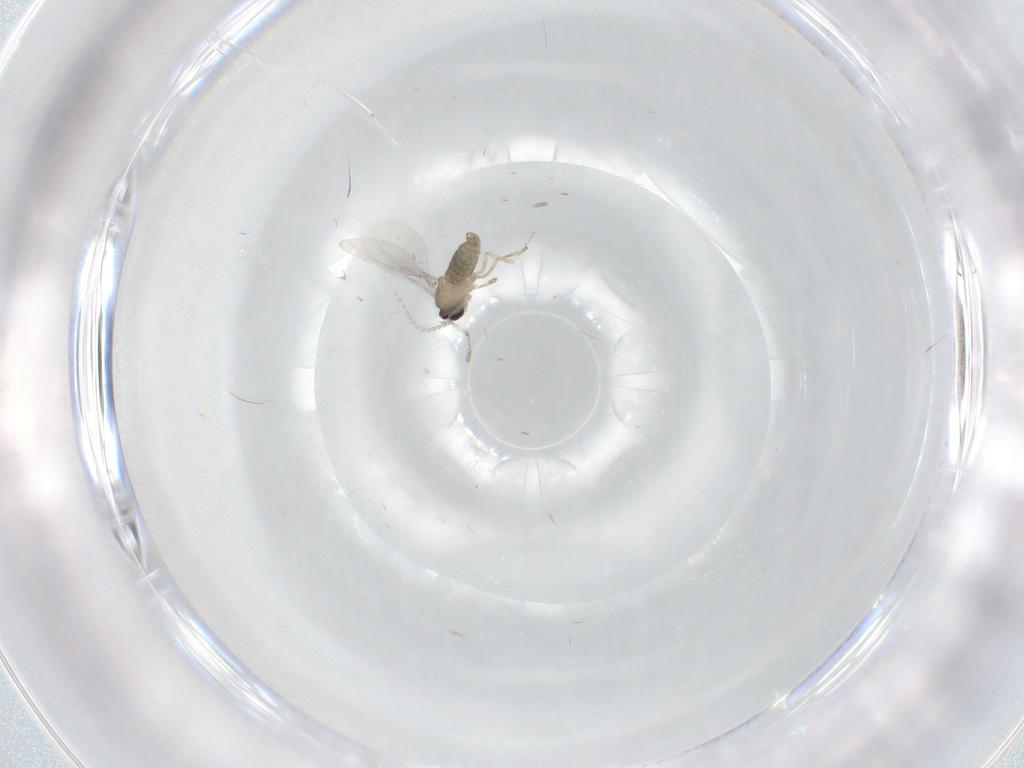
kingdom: Animalia
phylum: Arthropoda
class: Insecta
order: Diptera
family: Cecidomyiidae
